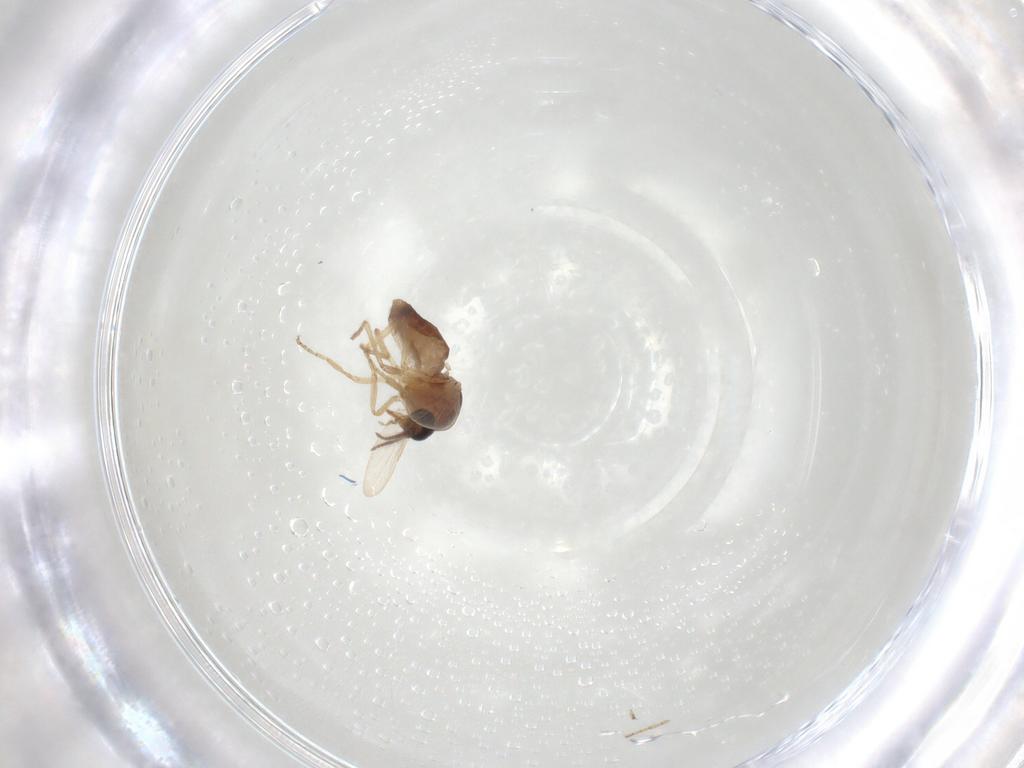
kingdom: Animalia
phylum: Arthropoda
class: Insecta
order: Diptera
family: Ceratopogonidae
